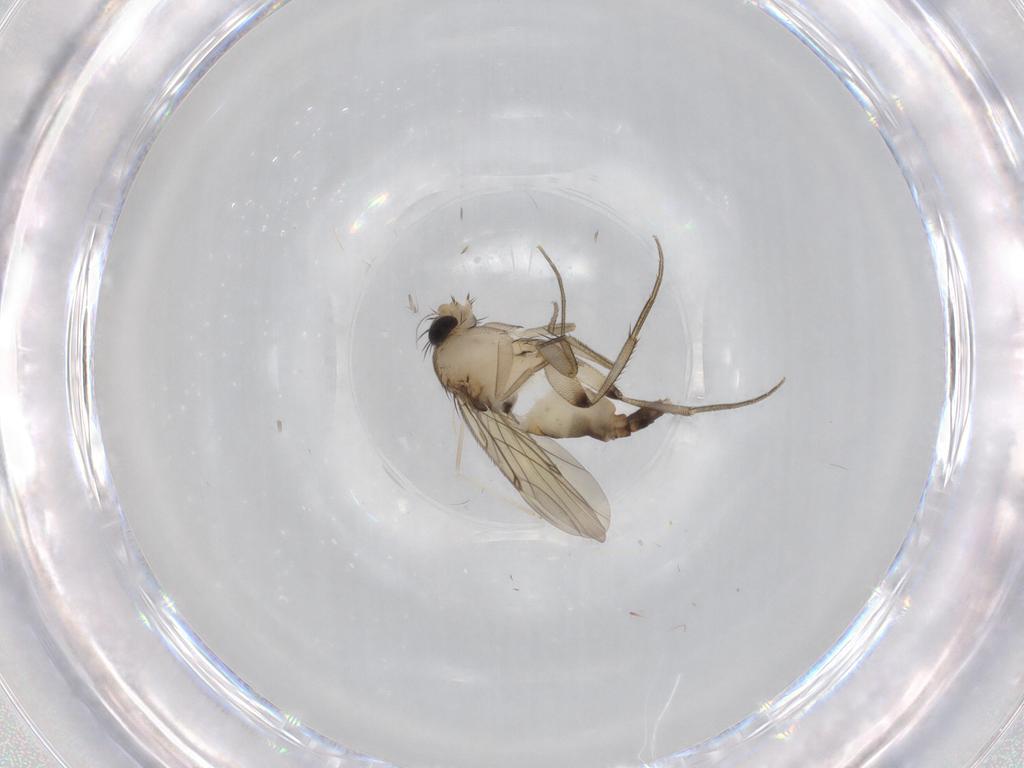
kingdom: Animalia
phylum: Arthropoda
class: Insecta
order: Diptera
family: Phoridae
